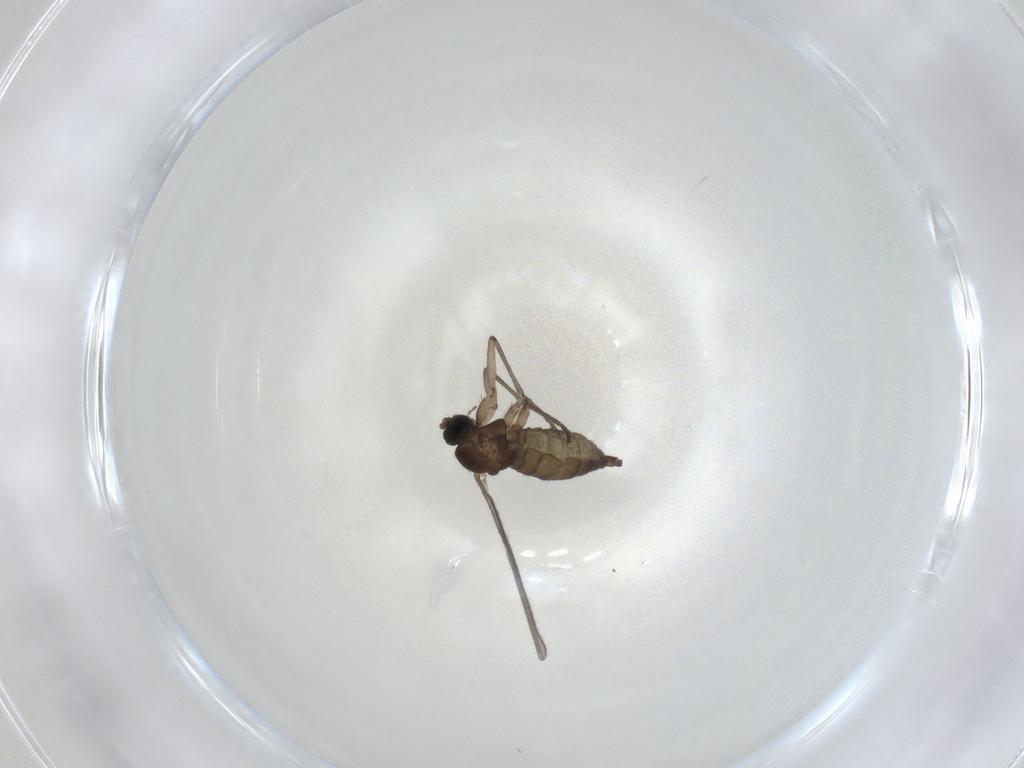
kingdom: Animalia
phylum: Arthropoda
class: Insecta
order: Diptera
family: Sciaridae
